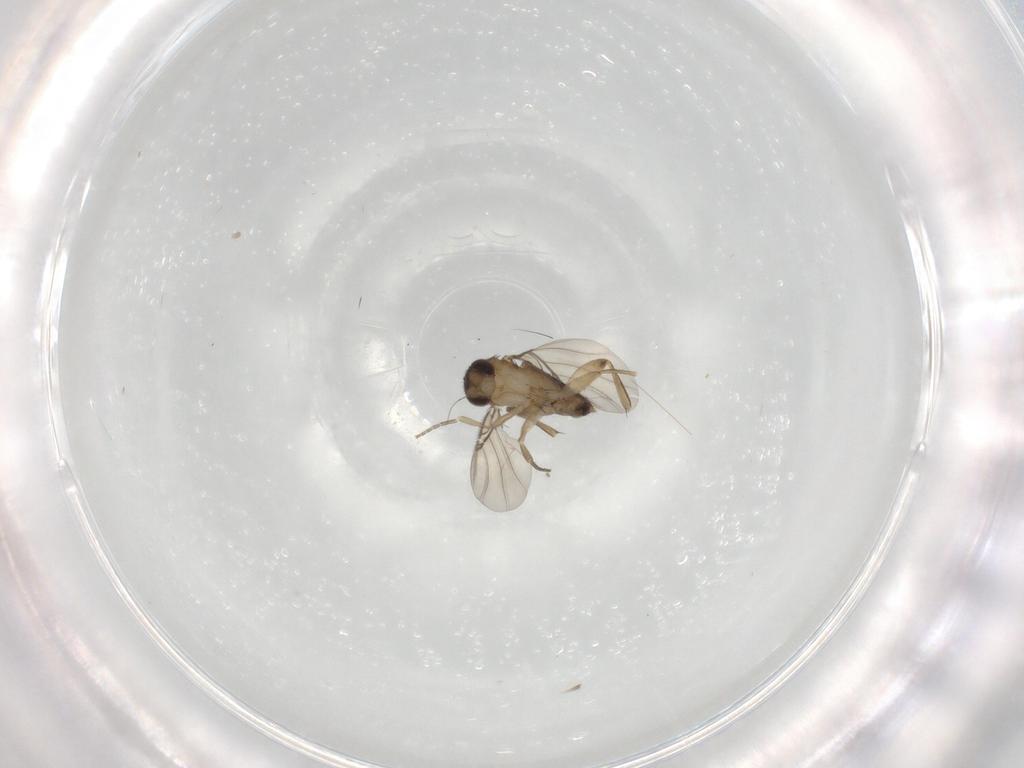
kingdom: Animalia
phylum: Arthropoda
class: Insecta
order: Diptera
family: Phoridae
